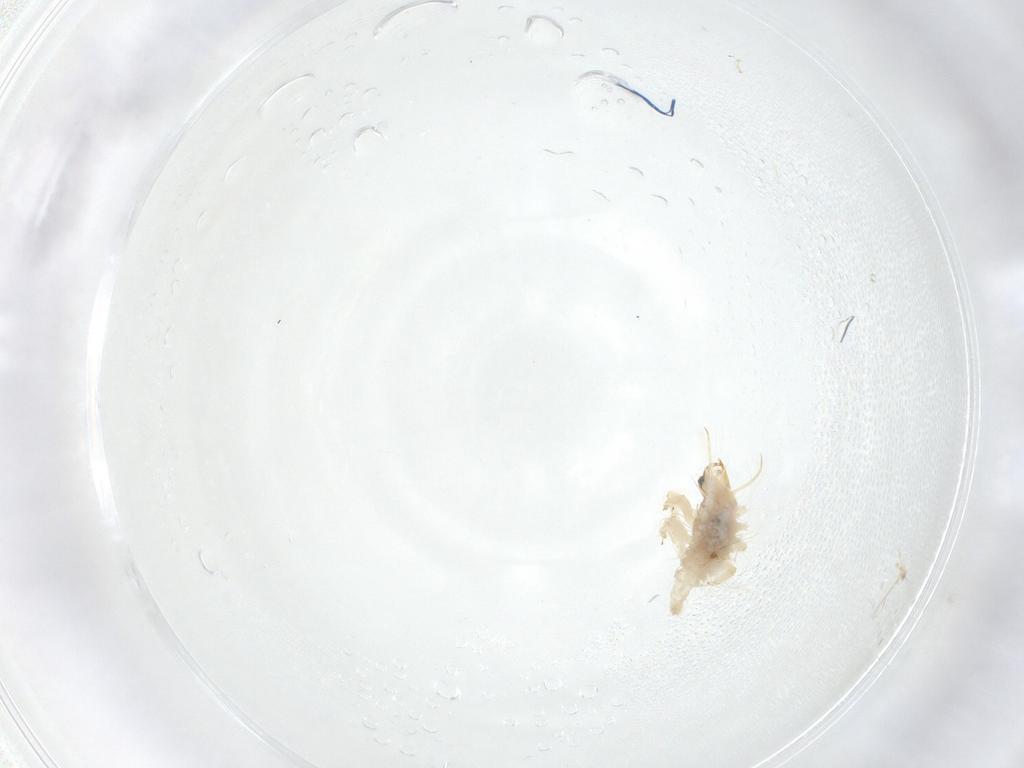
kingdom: Animalia
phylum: Arthropoda
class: Insecta
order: Neuroptera
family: Chrysopidae
